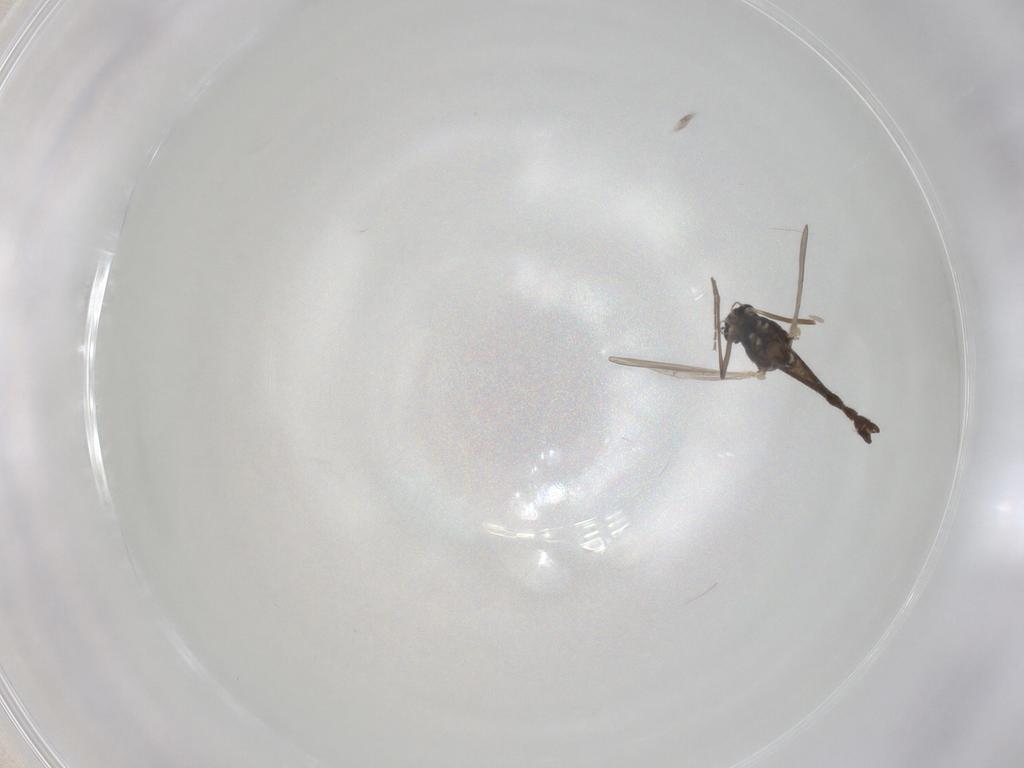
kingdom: Animalia
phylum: Arthropoda
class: Insecta
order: Diptera
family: Chironomidae
